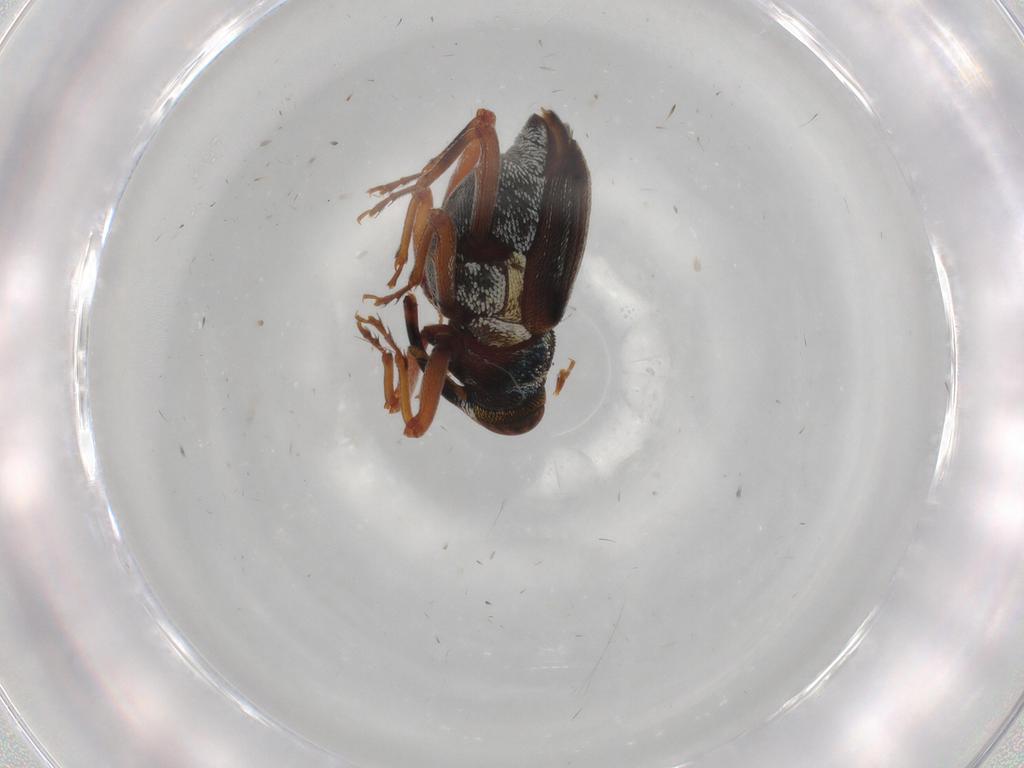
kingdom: Animalia
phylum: Arthropoda
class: Insecta
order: Coleoptera
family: Curculionidae
